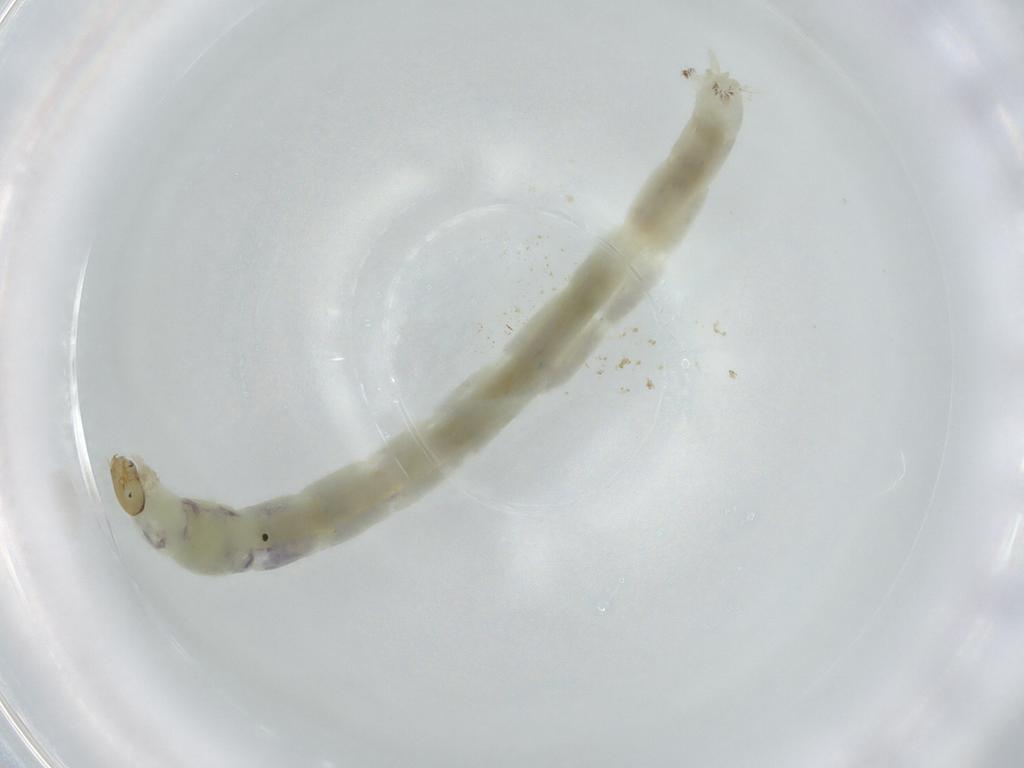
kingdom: Animalia
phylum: Arthropoda
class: Insecta
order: Diptera
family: Chironomidae
